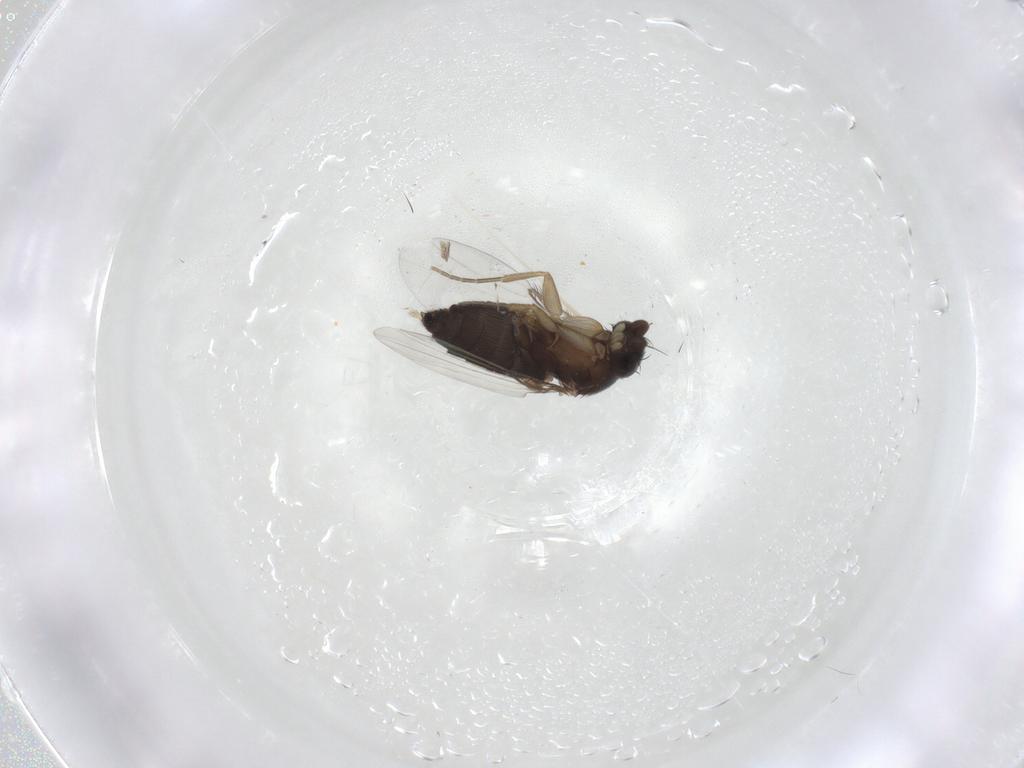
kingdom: Animalia
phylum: Arthropoda
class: Insecta
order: Diptera
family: Phoridae
